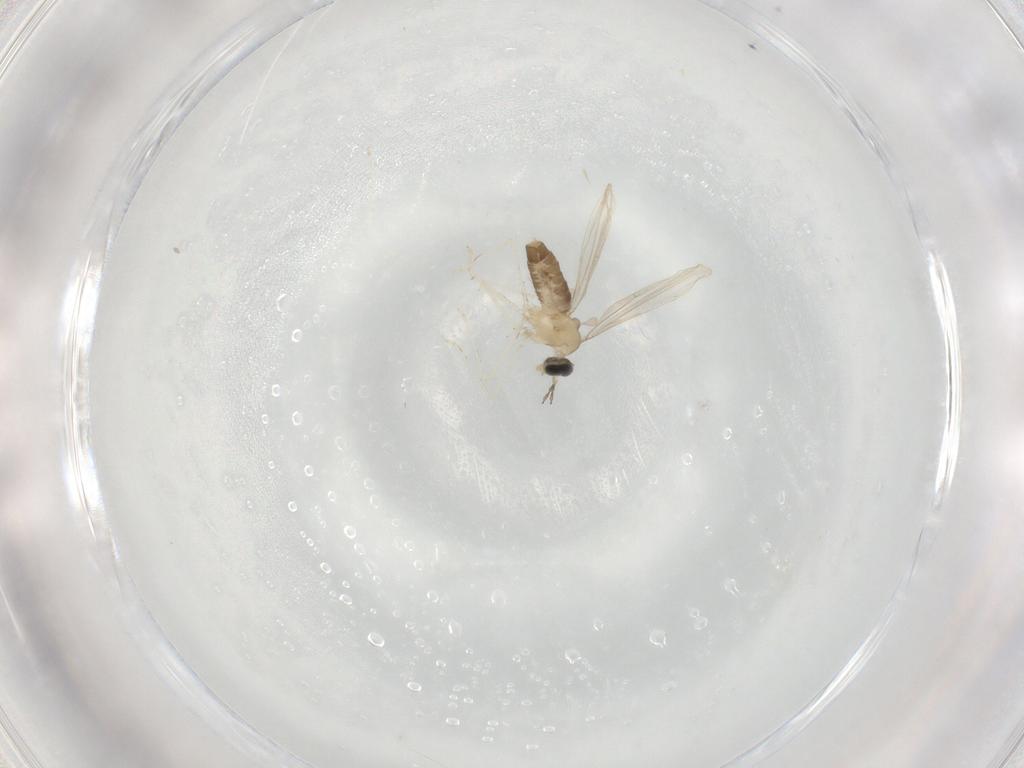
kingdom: Animalia
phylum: Arthropoda
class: Insecta
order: Diptera
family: Cecidomyiidae
